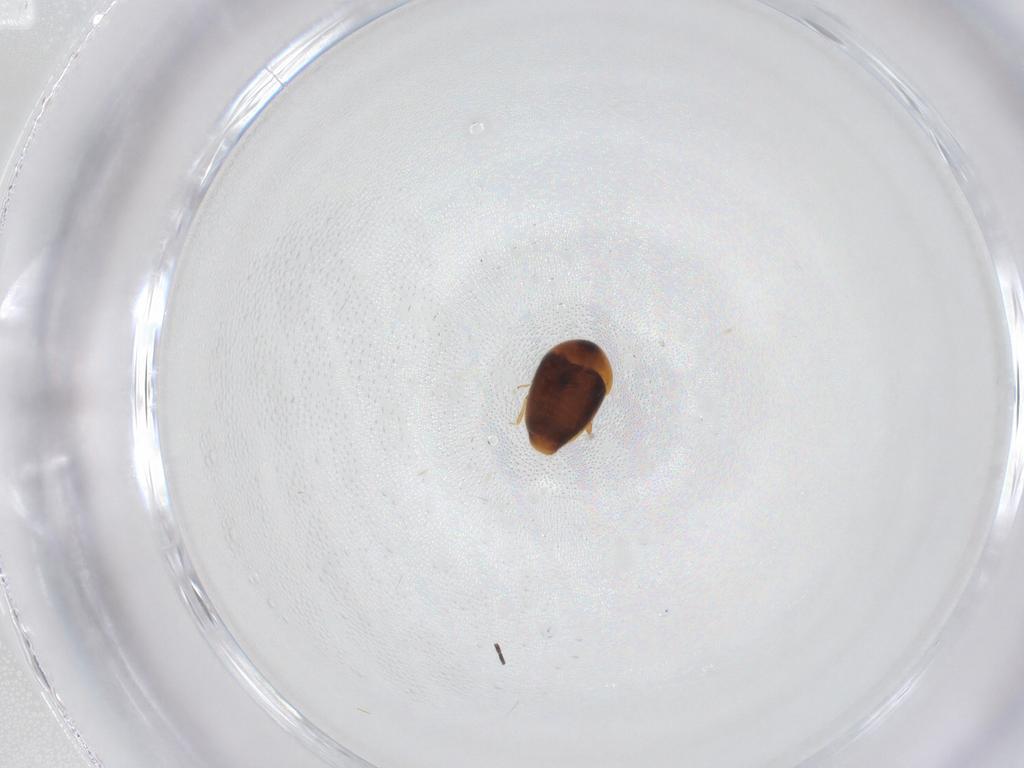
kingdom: Animalia
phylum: Arthropoda
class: Insecta
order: Coleoptera
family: Corylophidae
